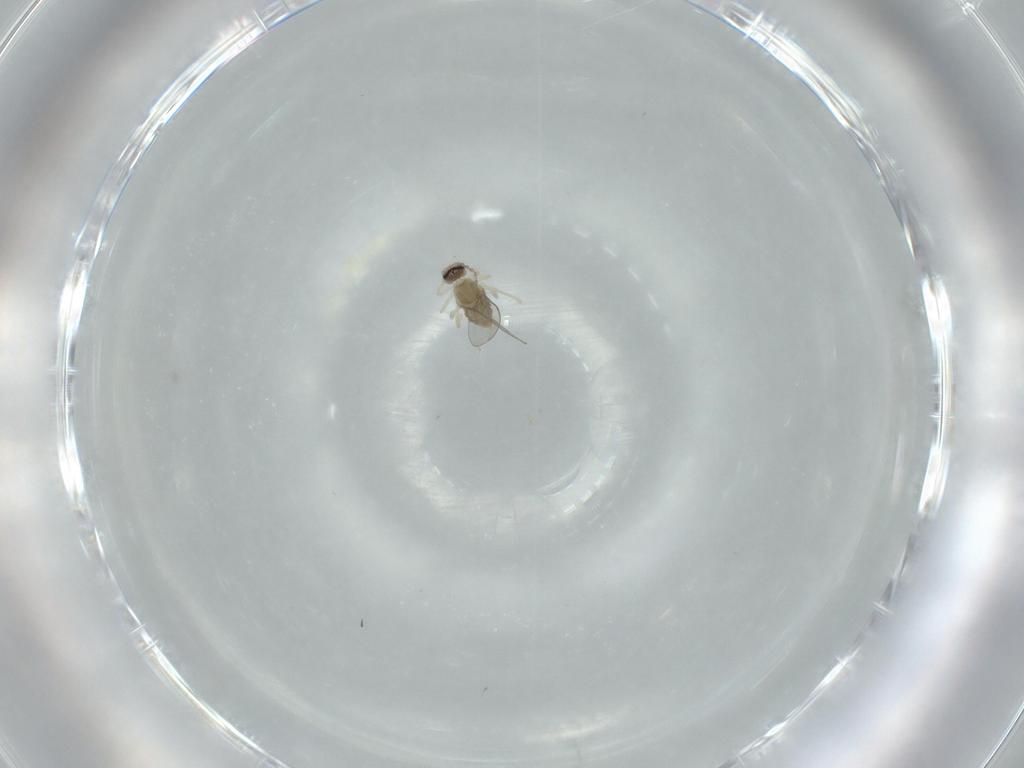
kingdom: Animalia
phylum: Arthropoda
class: Insecta
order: Diptera
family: Cecidomyiidae
